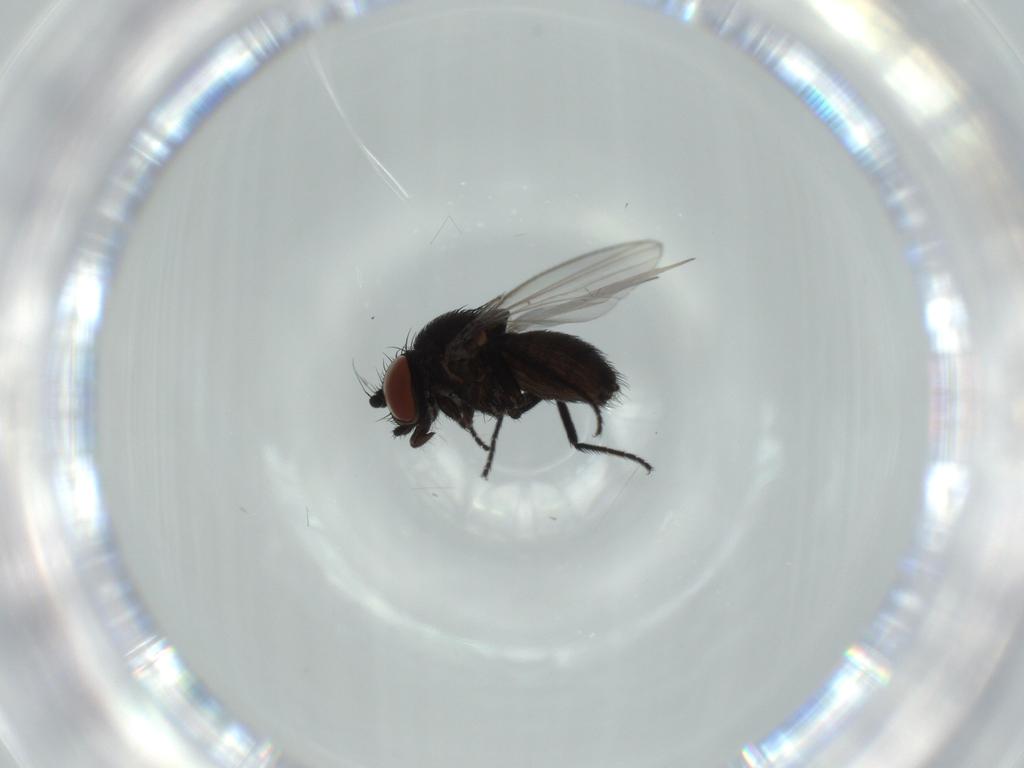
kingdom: Animalia
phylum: Arthropoda
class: Insecta
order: Diptera
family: Milichiidae
